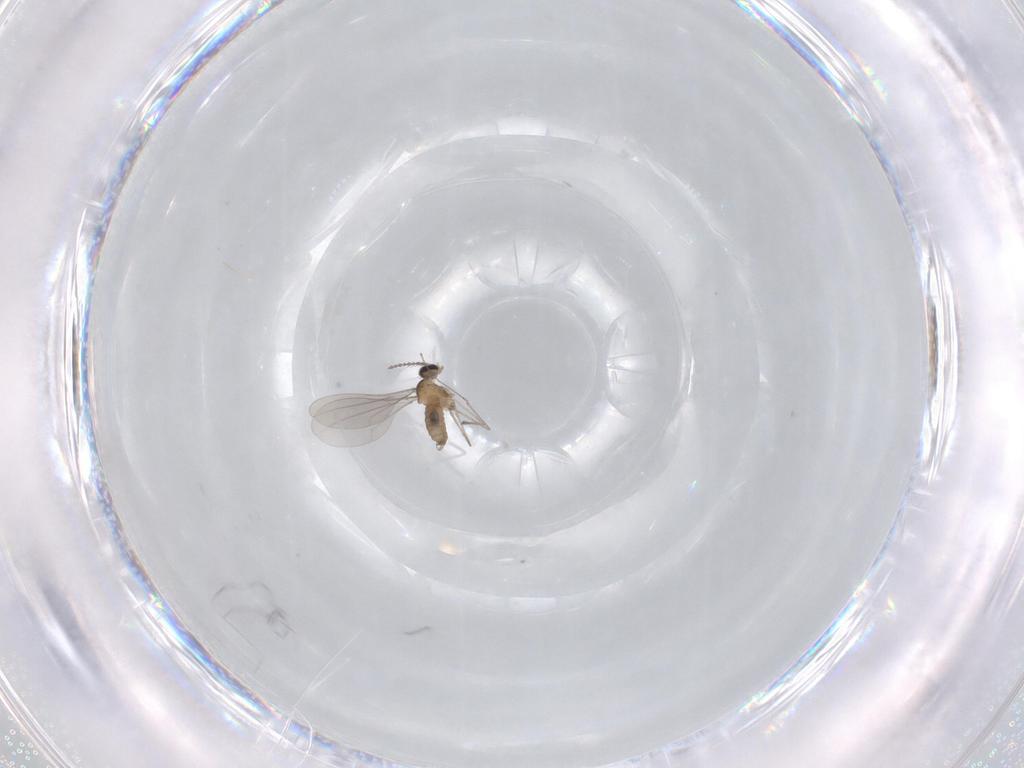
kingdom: Animalia
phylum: Arthropoda
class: Insecta
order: Diptera
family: Cecidomyiidae
